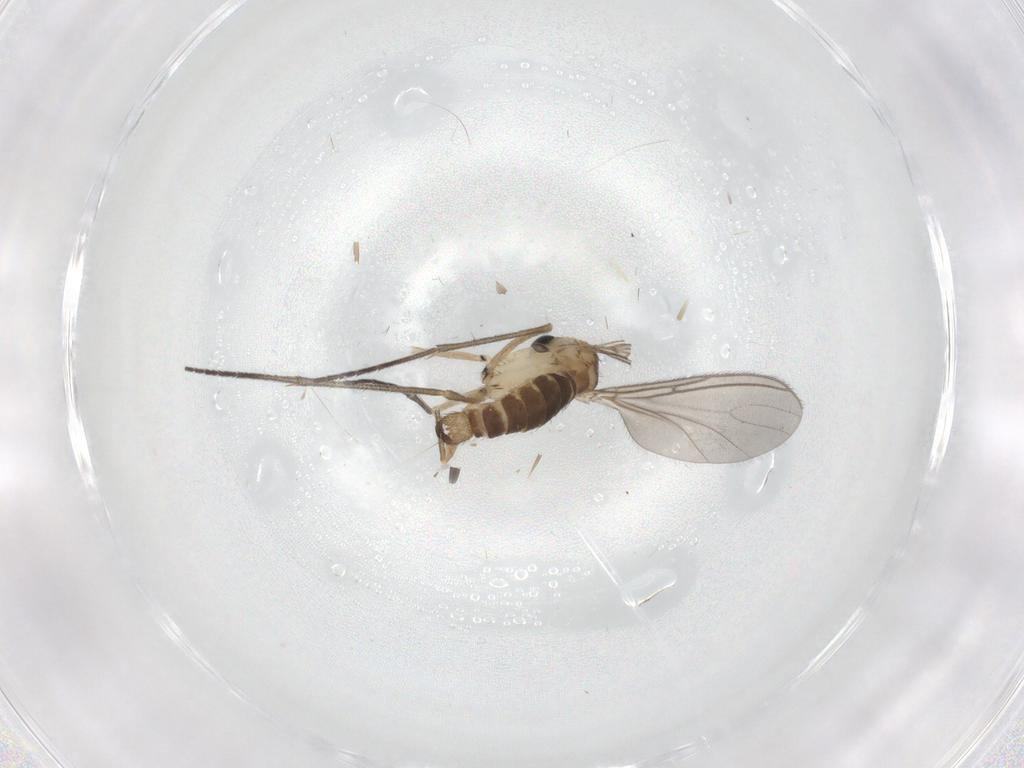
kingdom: Animalia
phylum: Arthropoda
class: Insecta
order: Diptera
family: Sciaridae
